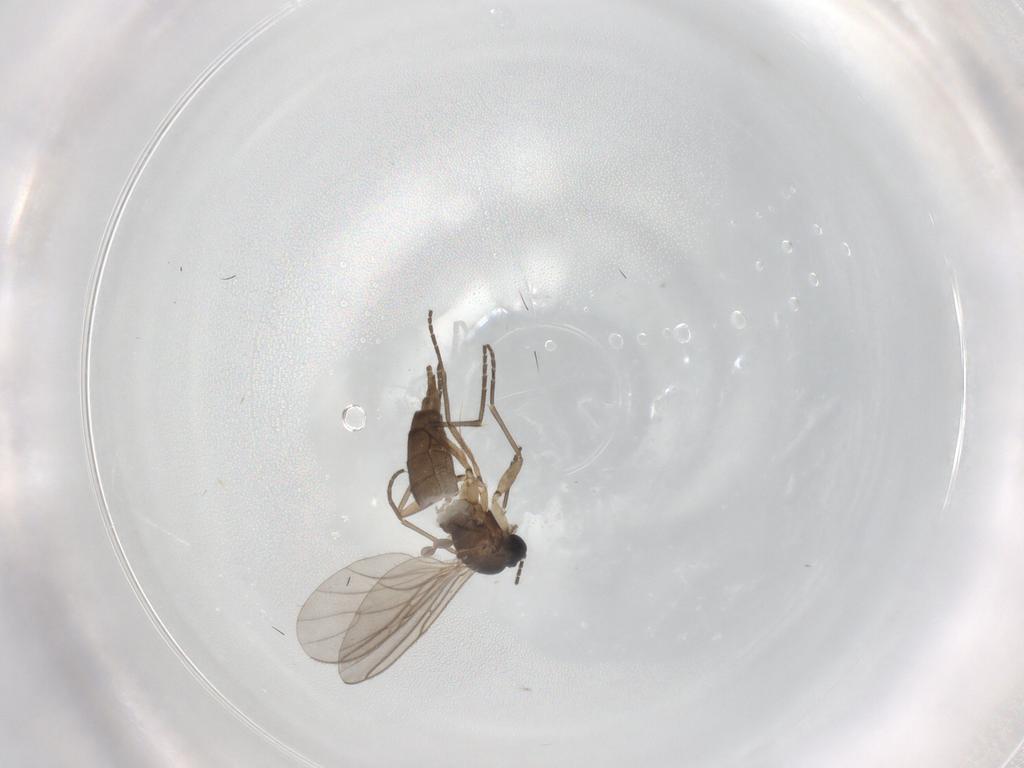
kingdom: Animalia
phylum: Arthropoda
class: Insecta
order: Diptera
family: Sciaridae
